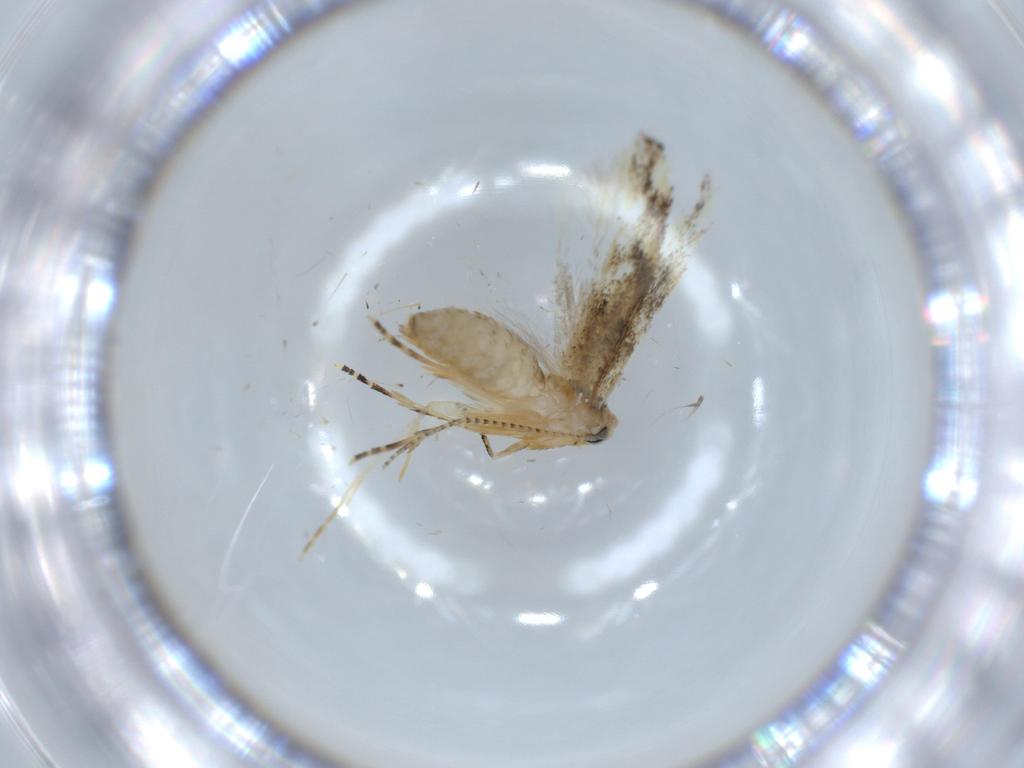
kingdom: Animalia
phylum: Arthropoda
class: Insecta
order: Lepidoptera
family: Bucculatricidae
